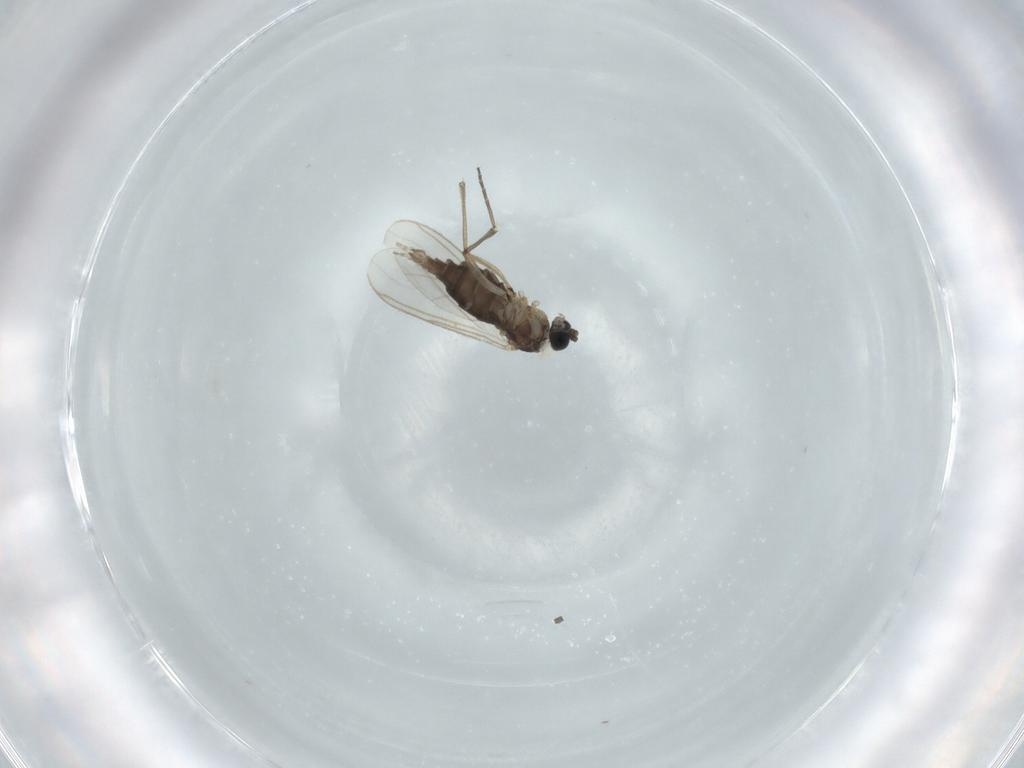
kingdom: Animalia
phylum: Arthropoda
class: Insecta
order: Diptera
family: Sciaridae
